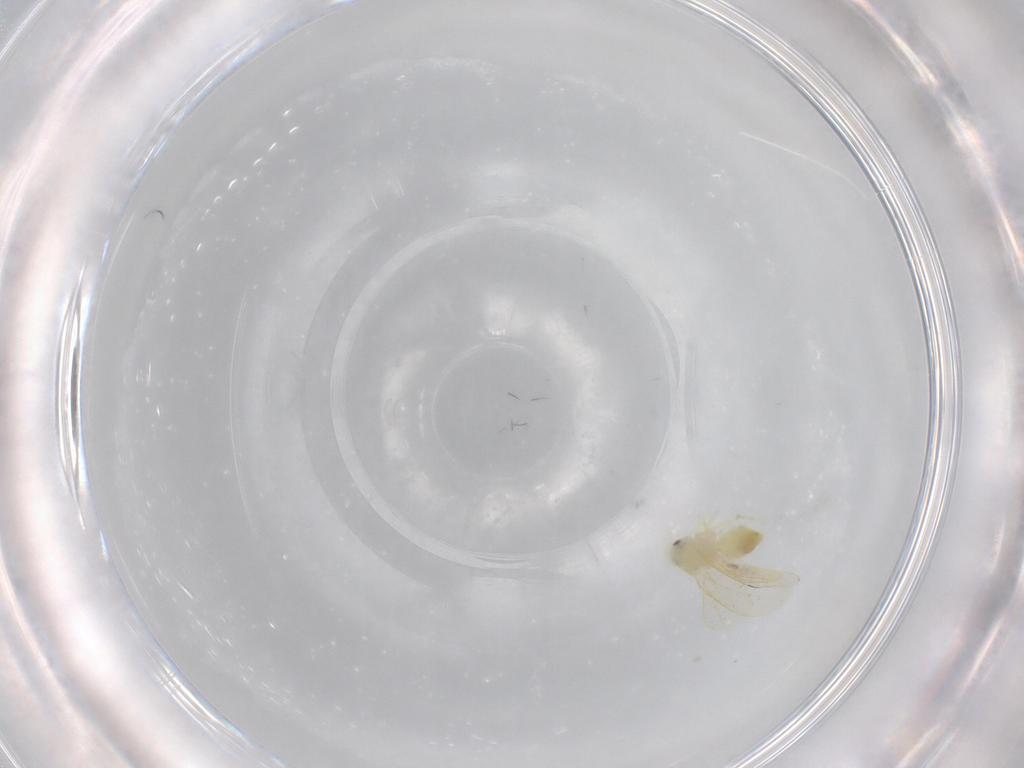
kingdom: Animalia
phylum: Arthropoda
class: Insecta
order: Hemiptera
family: Aleyrodidae
